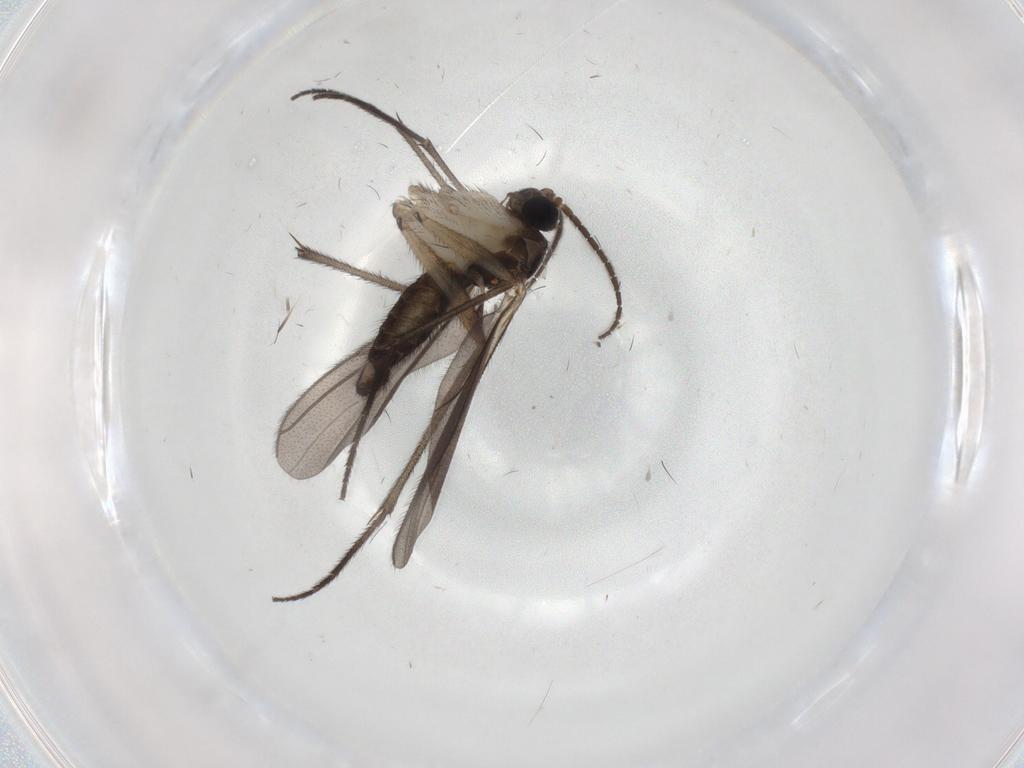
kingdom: Animalia
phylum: Arthropoda
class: Insecta
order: Diptera
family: Sciaridae
